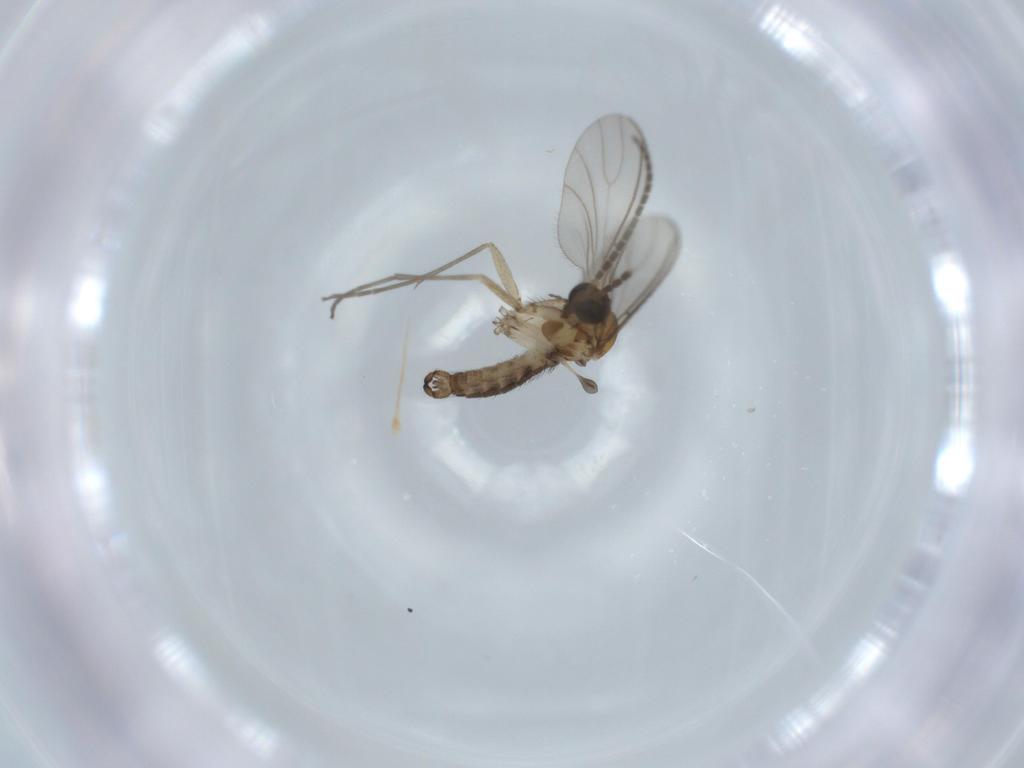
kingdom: Animalia
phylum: Arthropoda
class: Insecta
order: Diptera
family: Sciaridae
